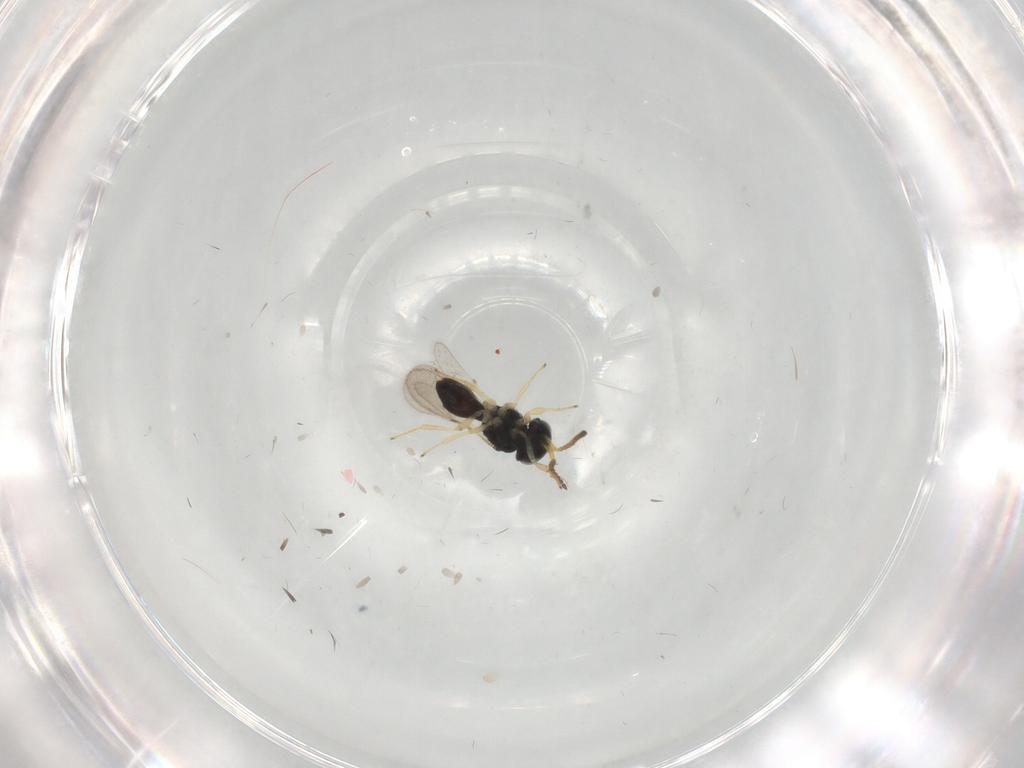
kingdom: Animalia
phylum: Arthropoda
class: Insecta
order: Hymenoptera
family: Scelionidae
